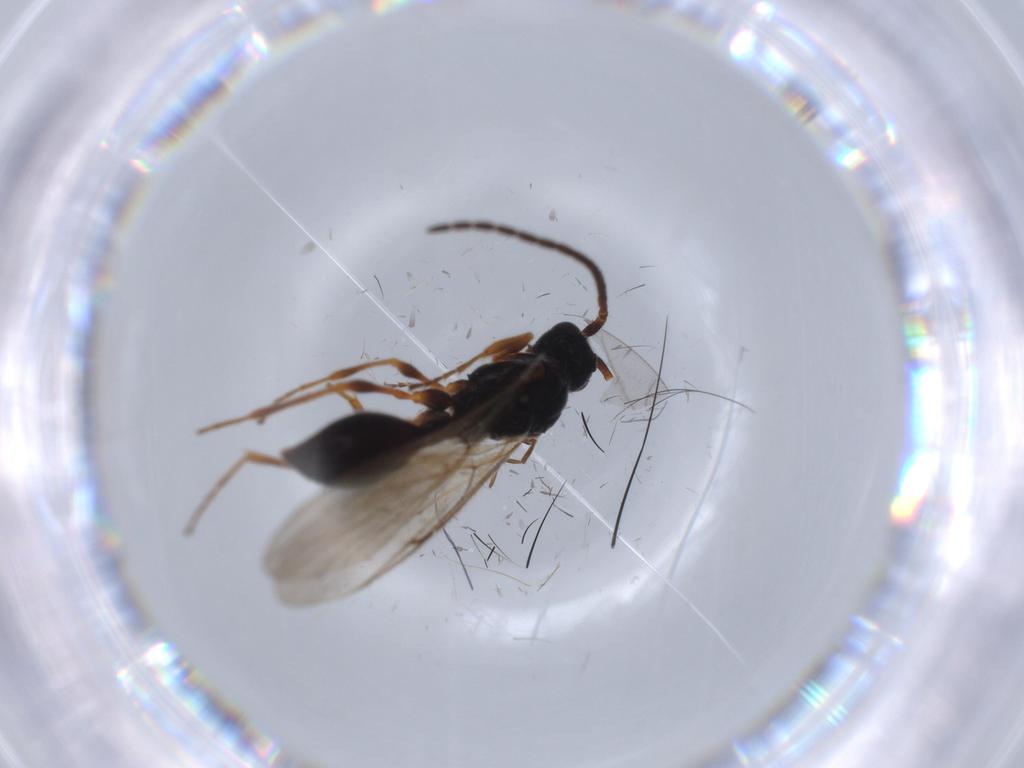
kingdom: Animalia
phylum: Arthropoda
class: Insecta
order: Hymenoptera
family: Ichneumonidae
